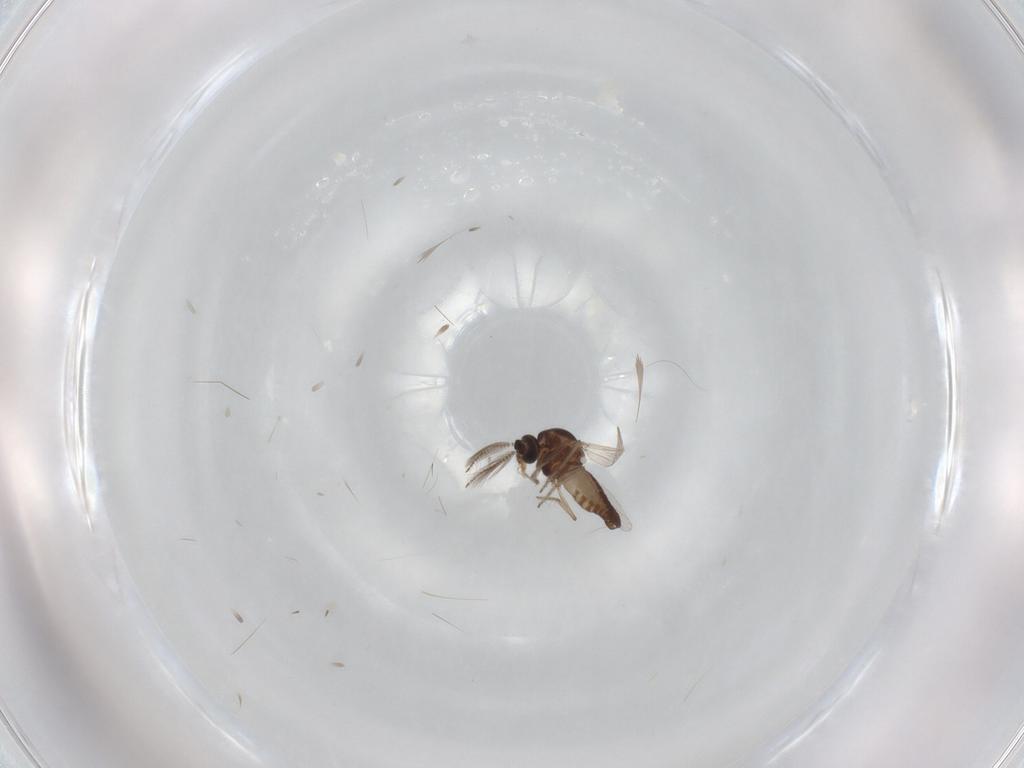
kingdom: Animalia
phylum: Arthropoda
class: Insecta
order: Diptera
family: Ceratopogonidae
